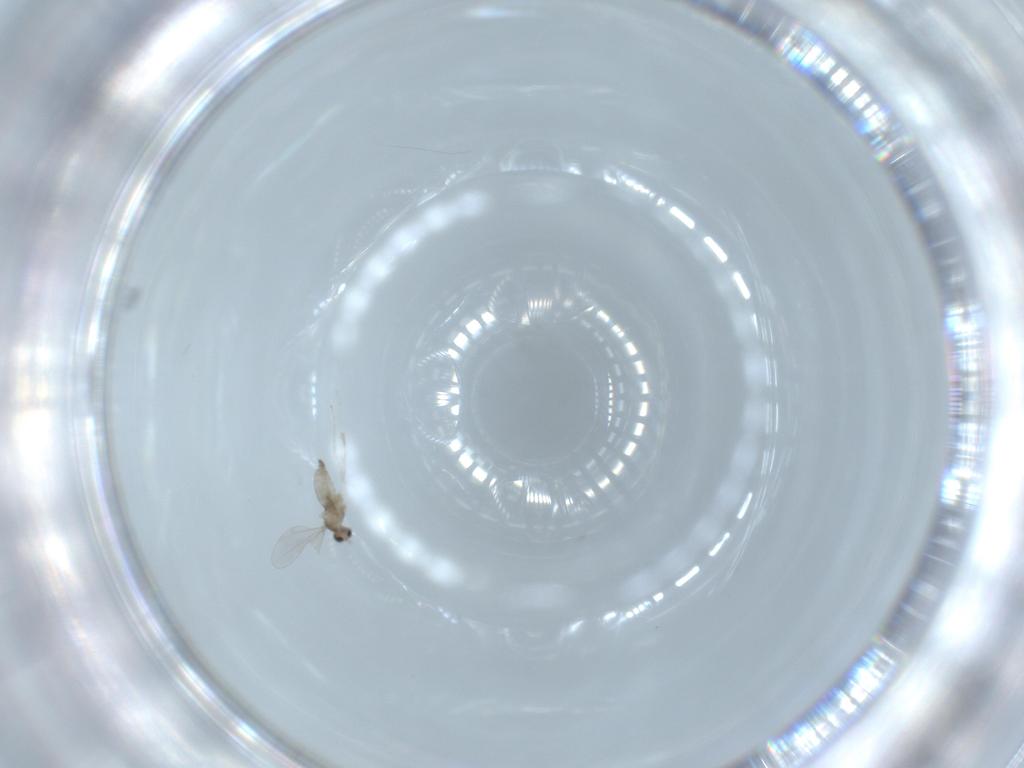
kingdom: Animalia
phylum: Arthropoda
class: Insecta
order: Diptera
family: Cecidomyiidae
